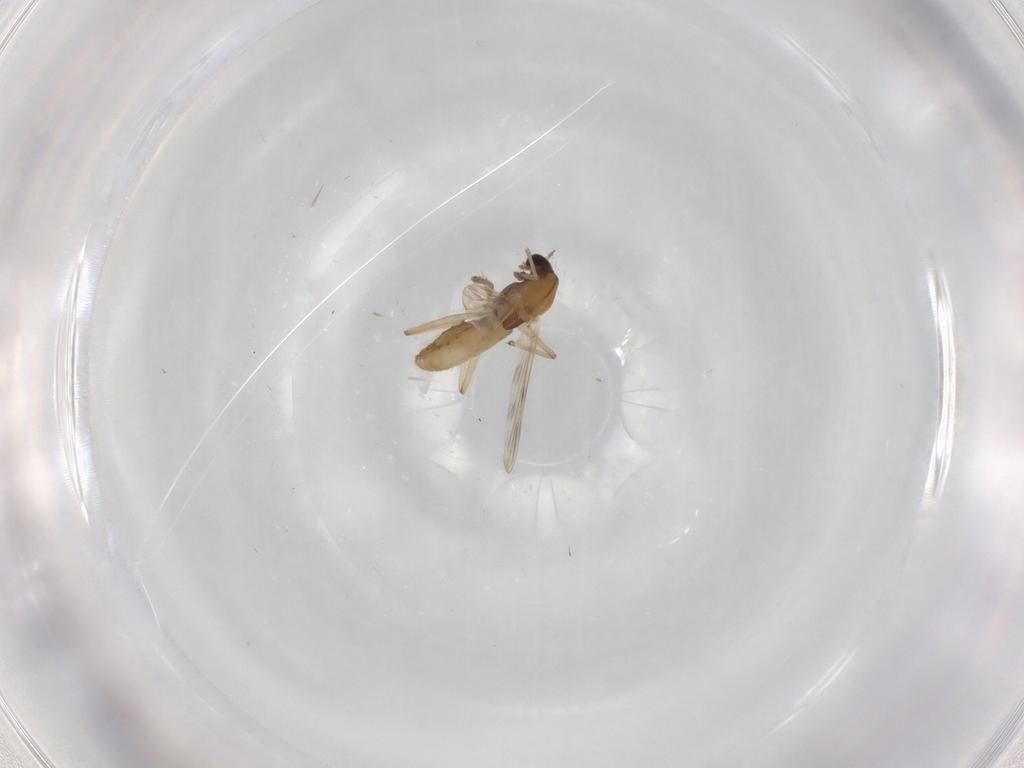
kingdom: Animalia
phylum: Arthropoda
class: Insecta
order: Diptera
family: Chironomidae
